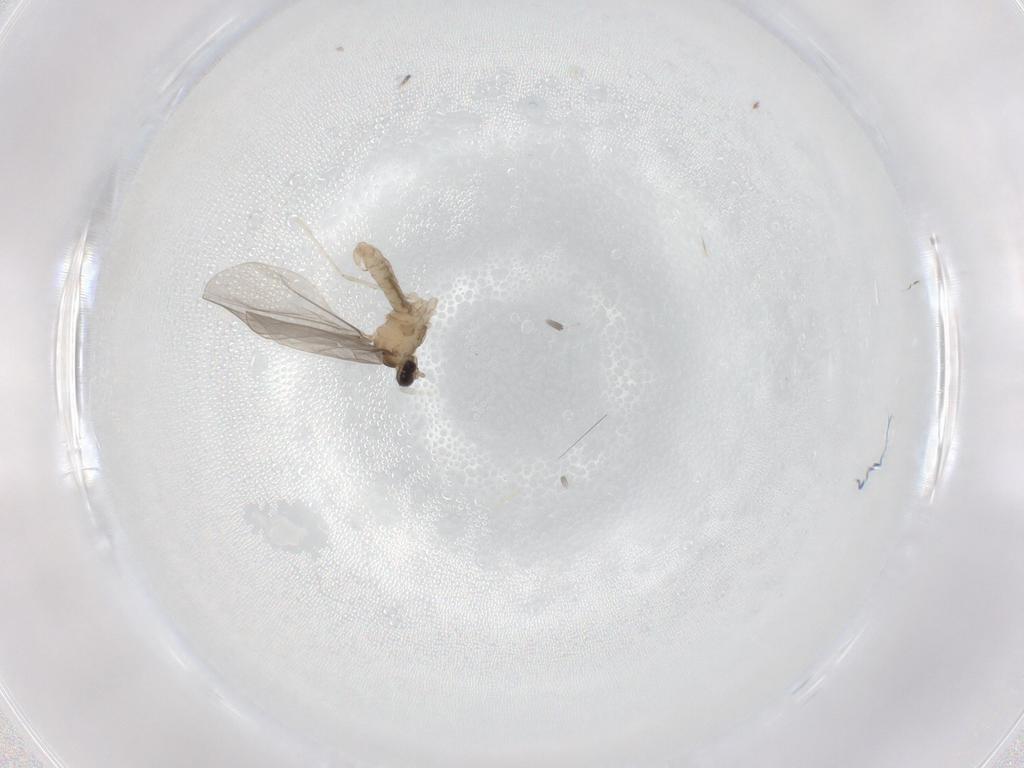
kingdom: Animalia
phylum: Arthropoda
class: Insecta
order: Diptera
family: Cecidomyiidae
